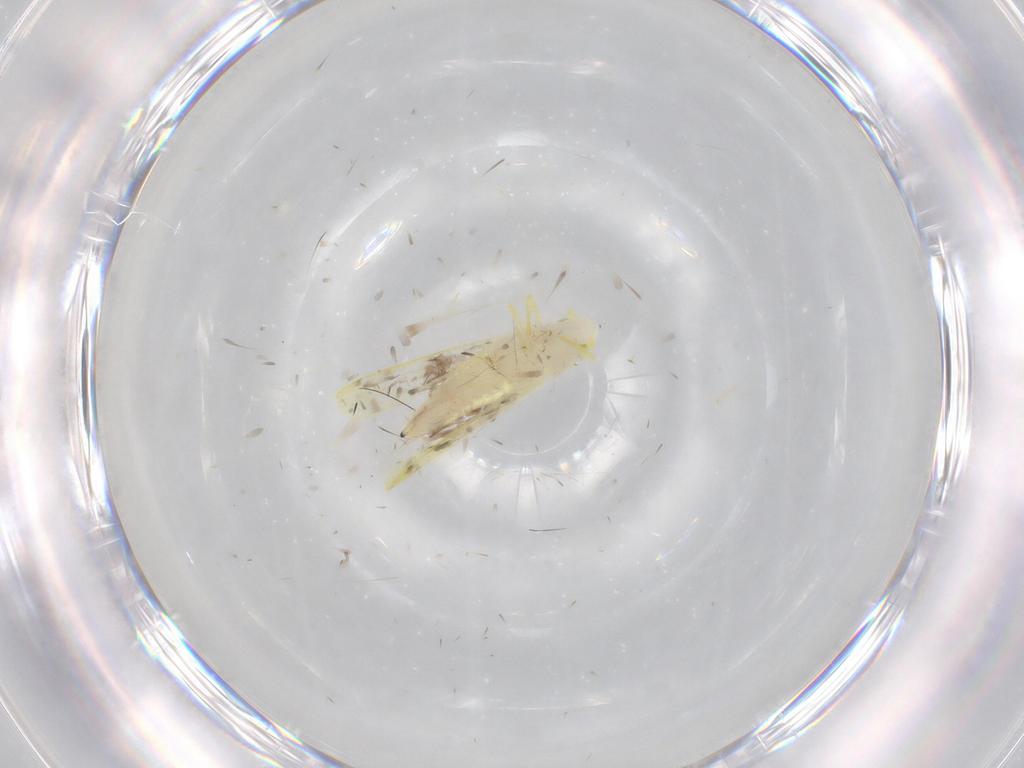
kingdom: Animalia
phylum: Arthropoda
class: Insecta
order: Hemiptera
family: Cicadellidae
